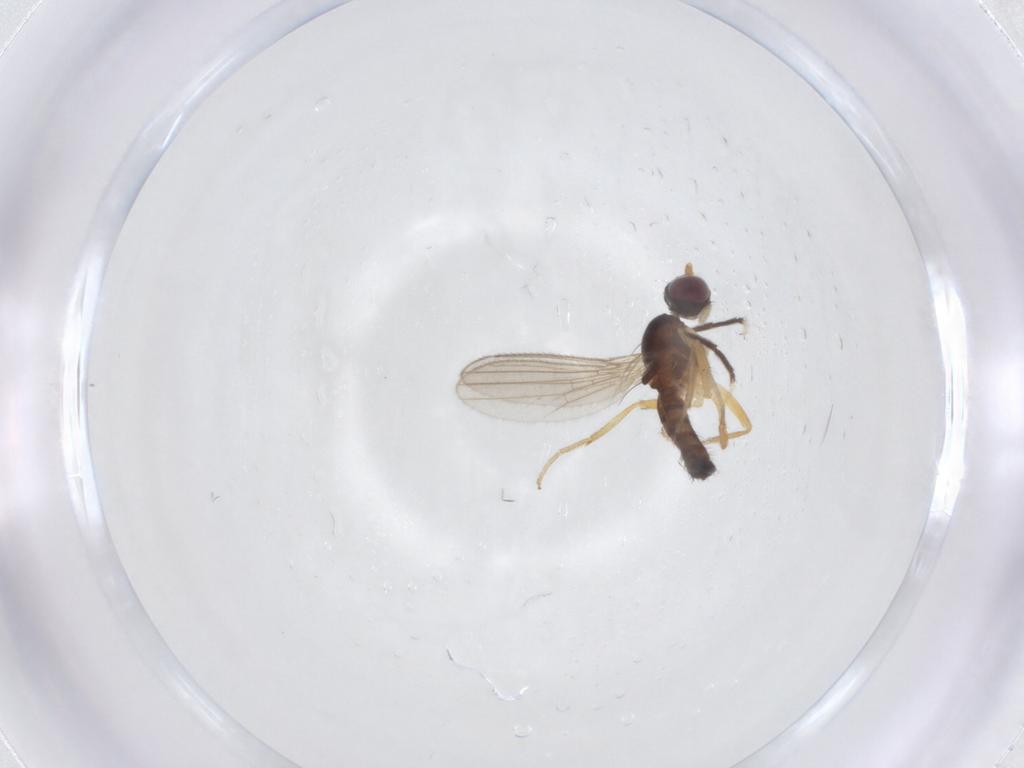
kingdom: Animalia
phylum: Arthropoda
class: Insecta
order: Diptera
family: Anthomyzidae
